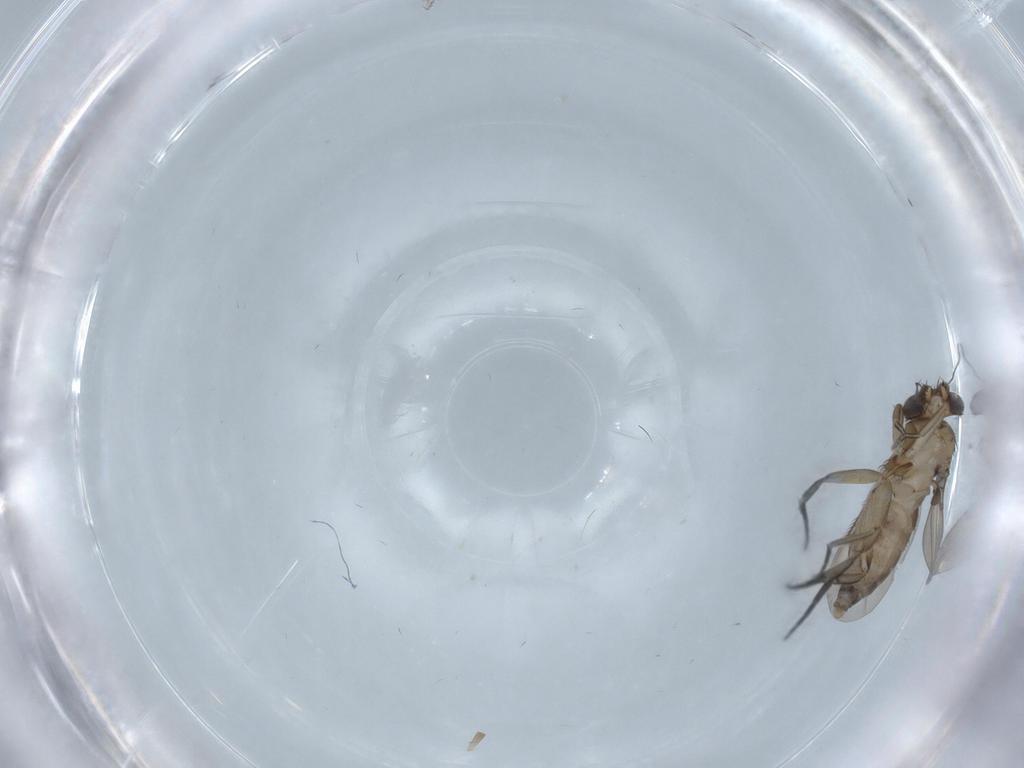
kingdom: Animalia
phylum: Arthropoda
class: Insecta
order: Diptera
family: Phoridae
